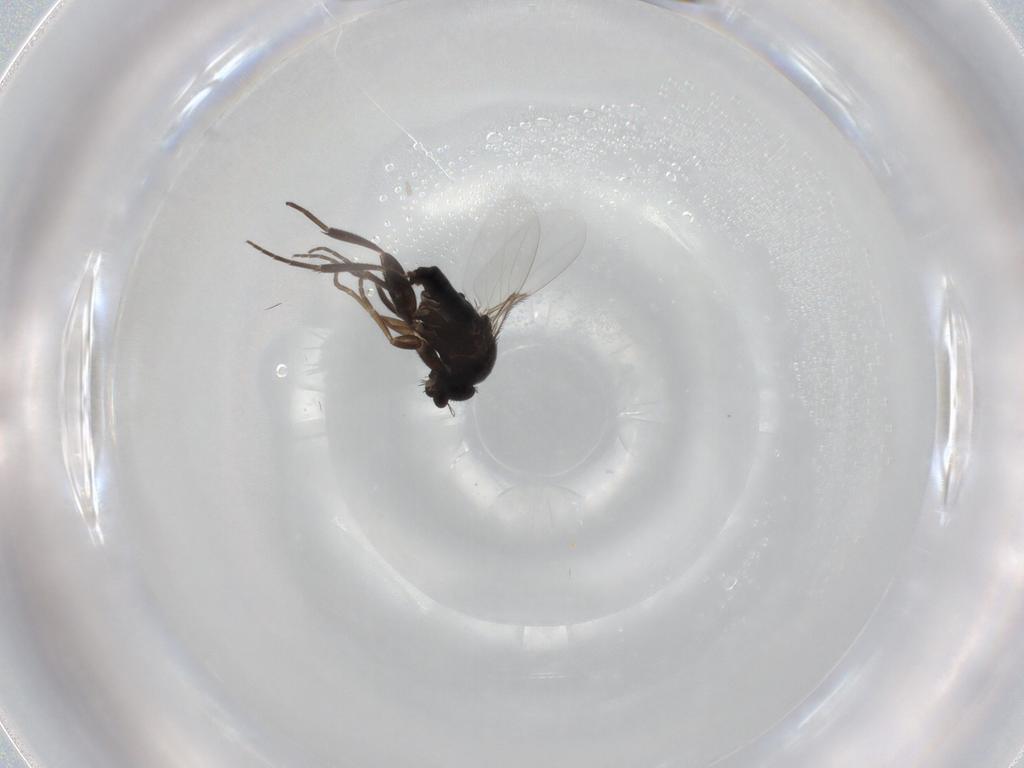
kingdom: Animalia
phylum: Arthropoda
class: Insecta
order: Diptera
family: Phoridae
